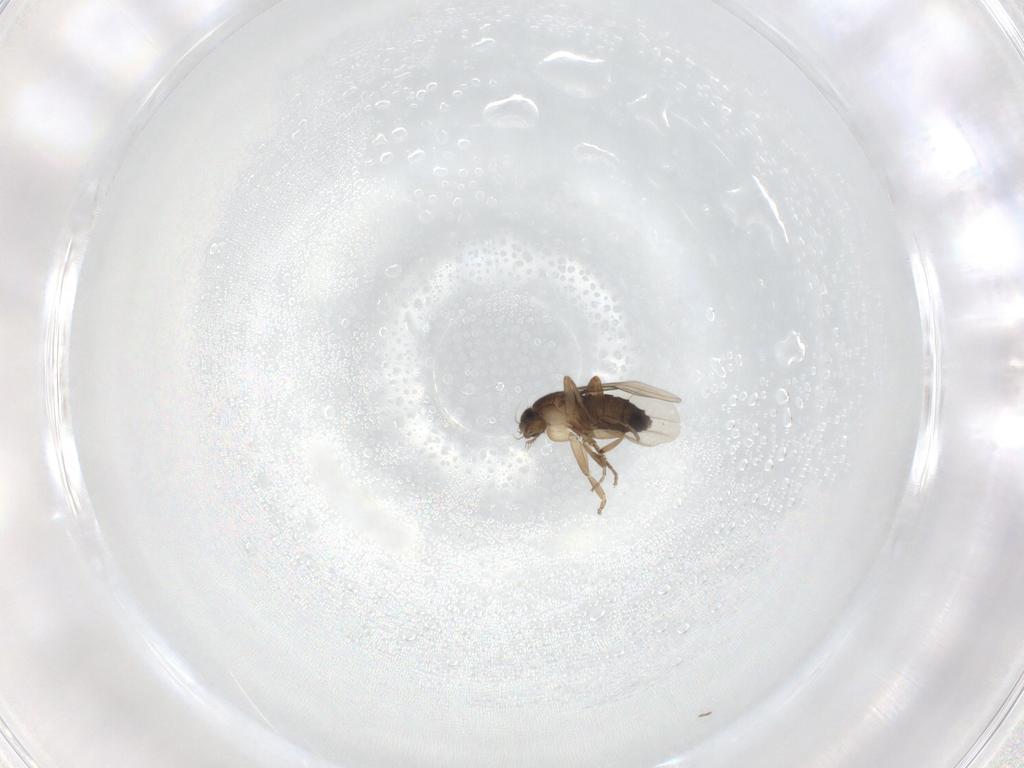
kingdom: Animalia
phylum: Arthropoda
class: Insecta
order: Diptera
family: Phoridae
